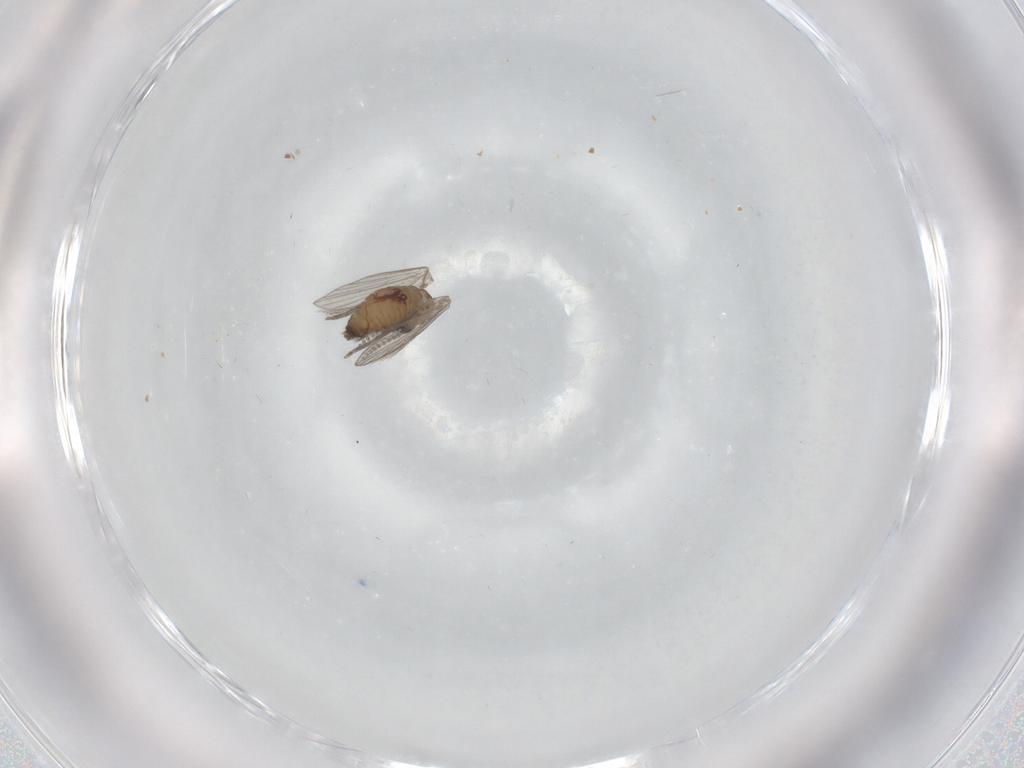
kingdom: Animalia
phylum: Arthropoda
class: Insecta
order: Diptera
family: Psychodidae
